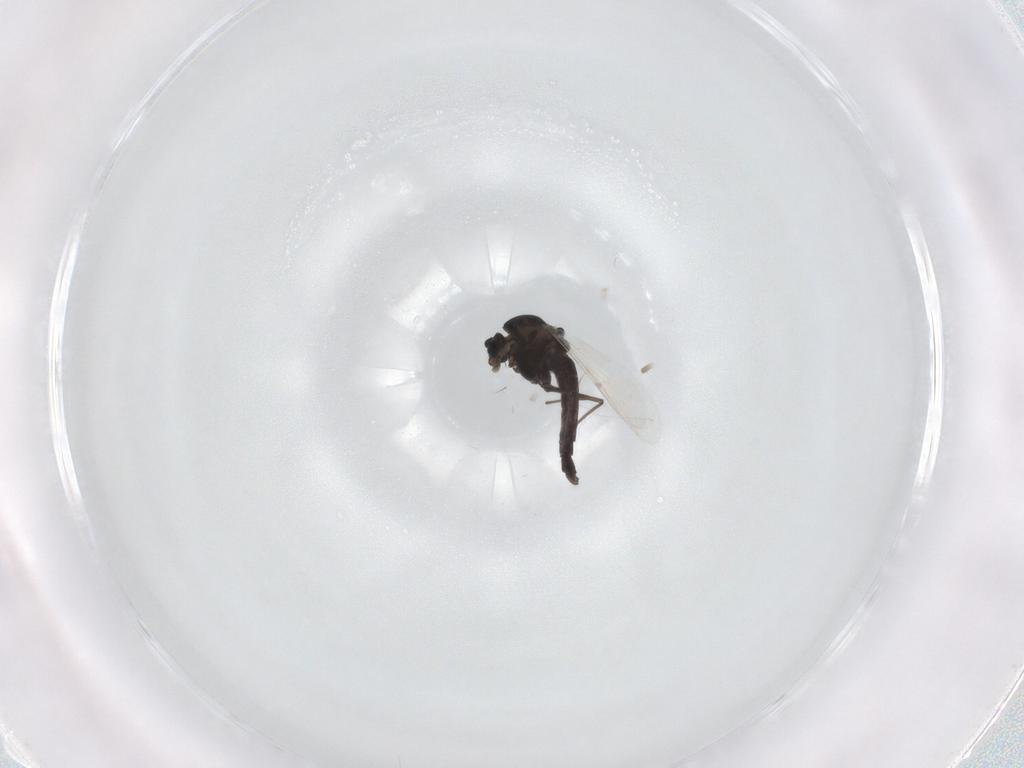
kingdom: Animalia
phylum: Arthropoda
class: Insecta
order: Diptera
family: Chironomidae
